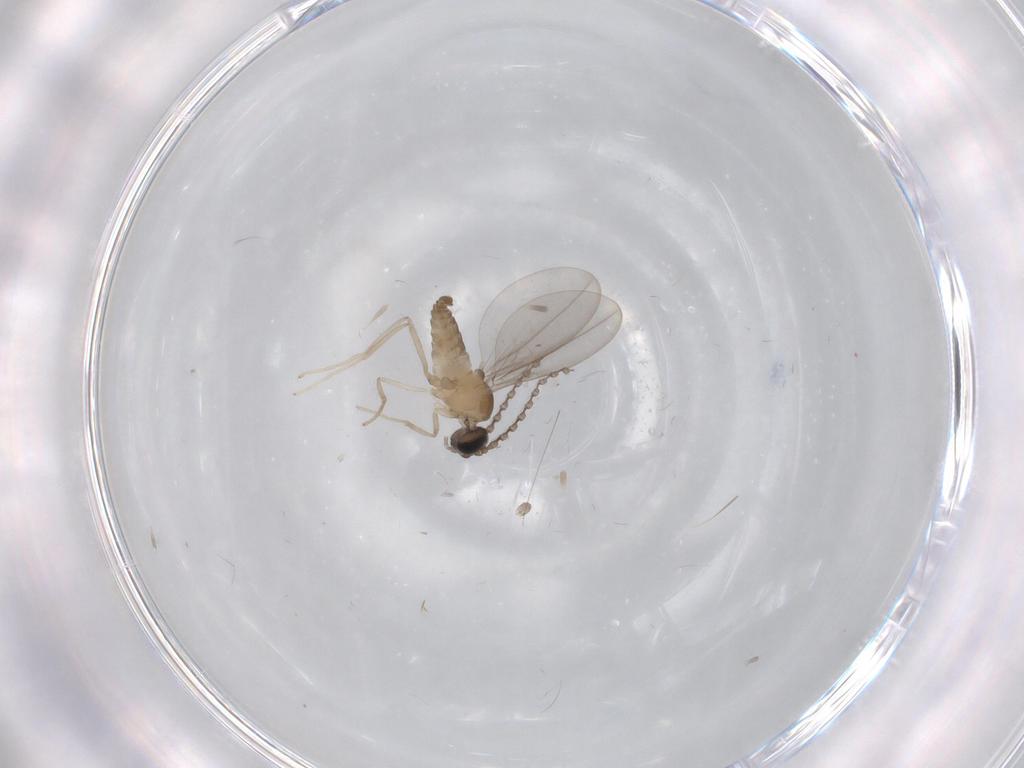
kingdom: Animalia
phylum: Arthropoda
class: Insecta
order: Diptera
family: Cecidomyiidae
